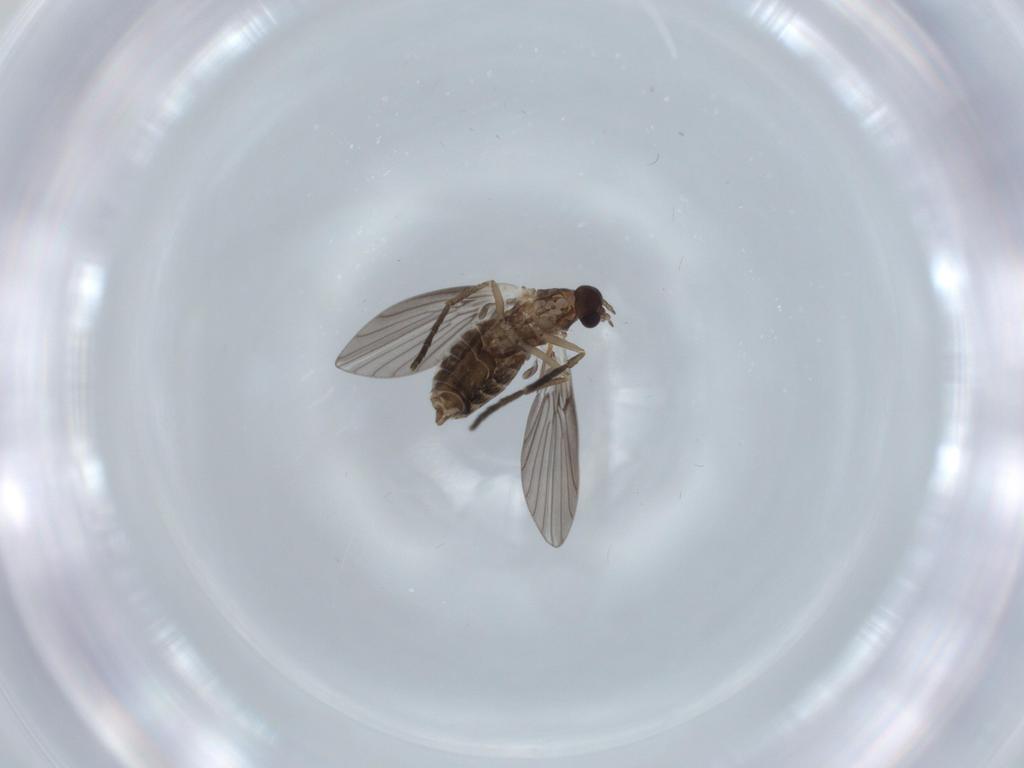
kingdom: Animalia
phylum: Arthropoda
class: Insecta
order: Diptera
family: Psychodidae
